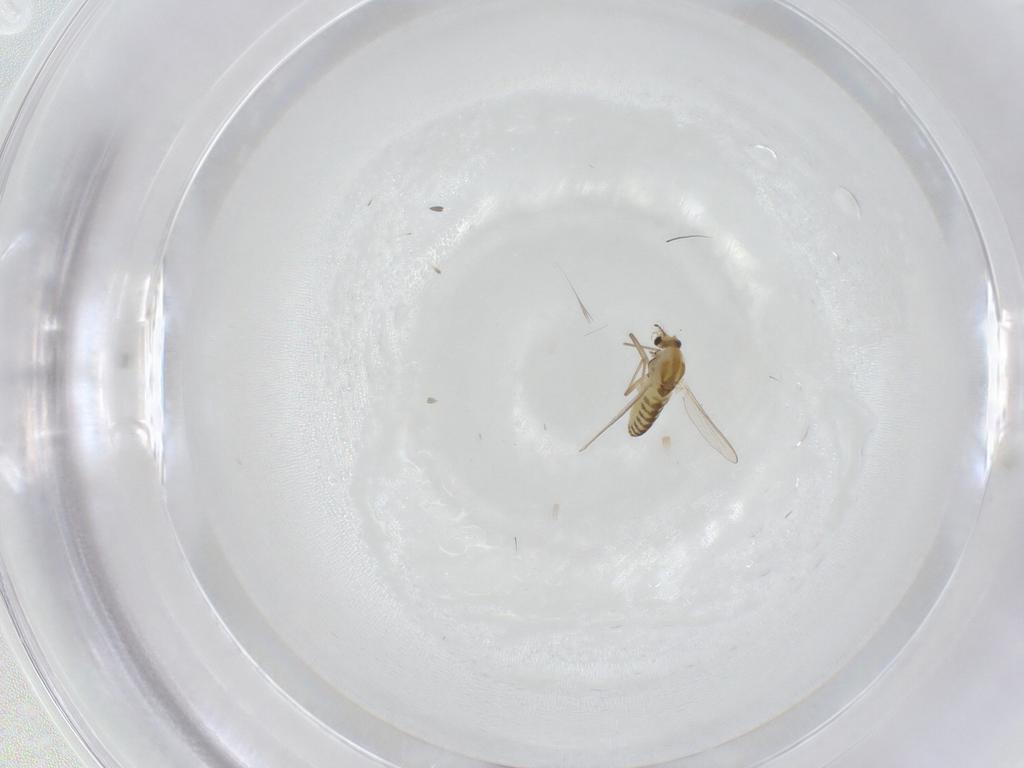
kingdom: Animalia
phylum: Arthropoda
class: Insecta
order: Diptera
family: Chironomidae
